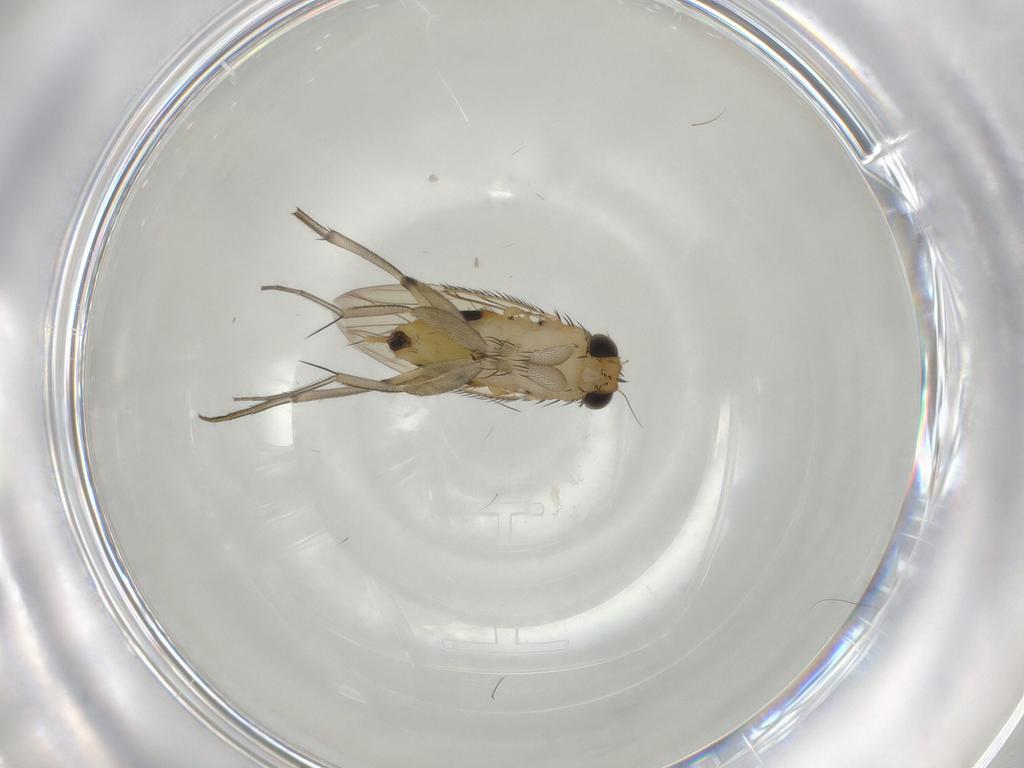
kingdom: Animalia
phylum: Arthropoda
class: Insecta
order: Diptera
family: Phoridae
